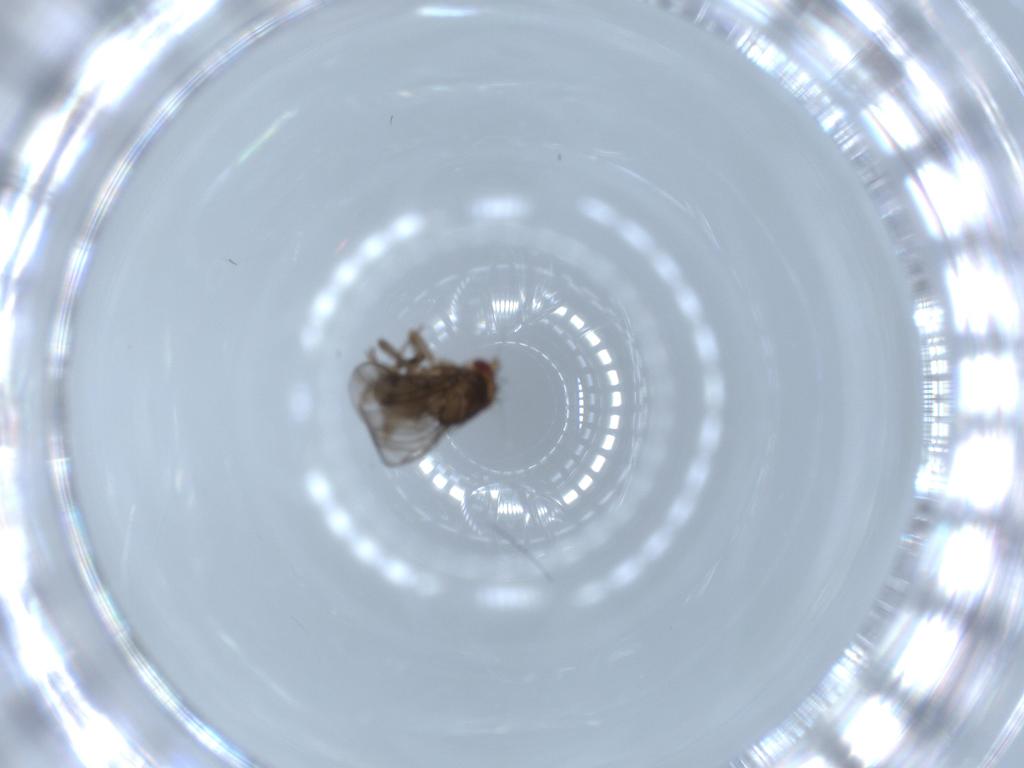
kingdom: Animalia
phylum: Arthropoda
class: Insecta
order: Diptera
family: Sphaeroceridae
